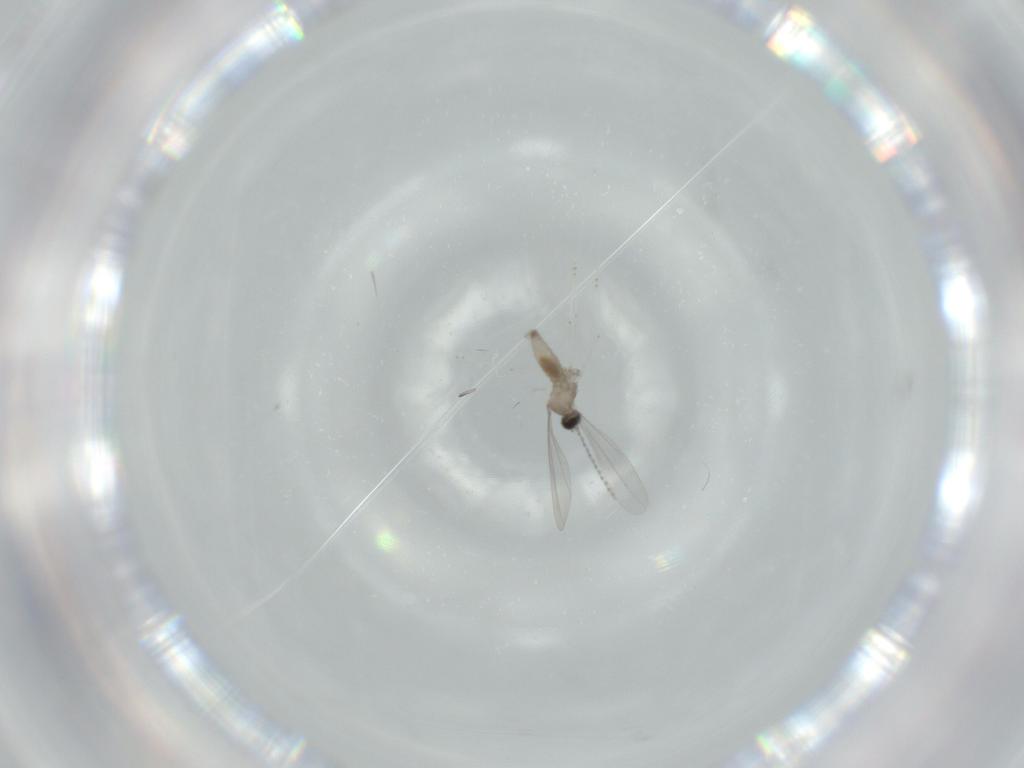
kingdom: Animalia
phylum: Arthropoda
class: Insecta
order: Diptera
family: Cecidomyiidae
